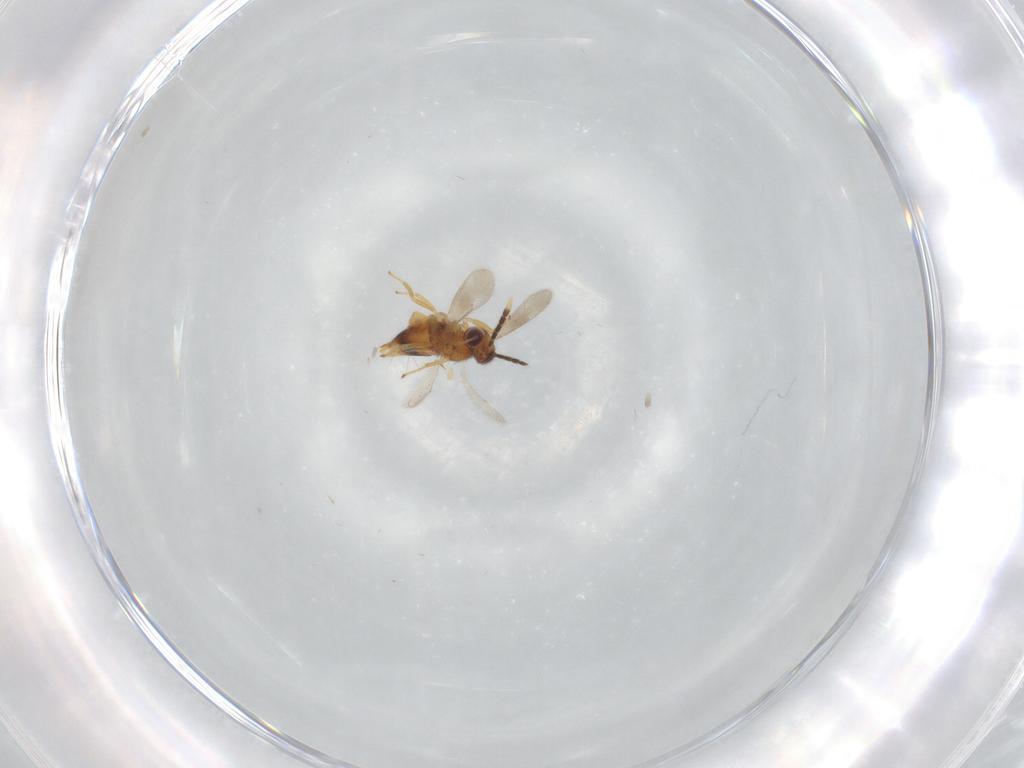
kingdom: Animalia
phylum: Arthropoda
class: Insecta
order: Hymenoptera
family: Aphelinidae
